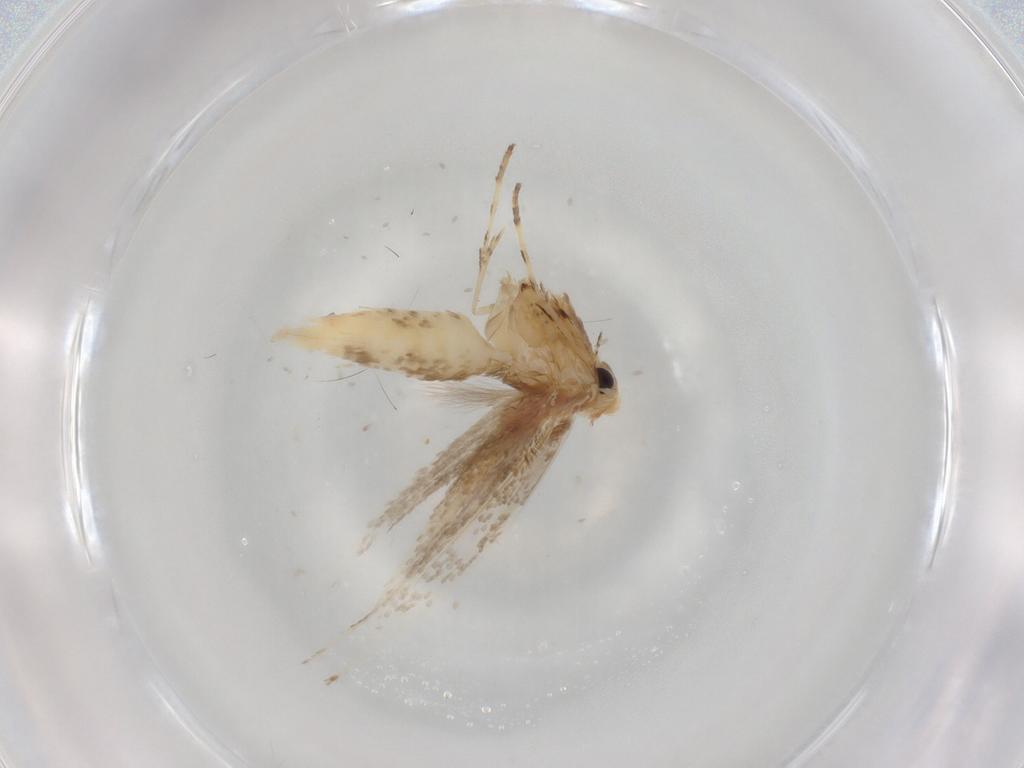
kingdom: Animalia
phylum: Arthropoda
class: Insecta
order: Lepidoptera
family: Gracillariidae
